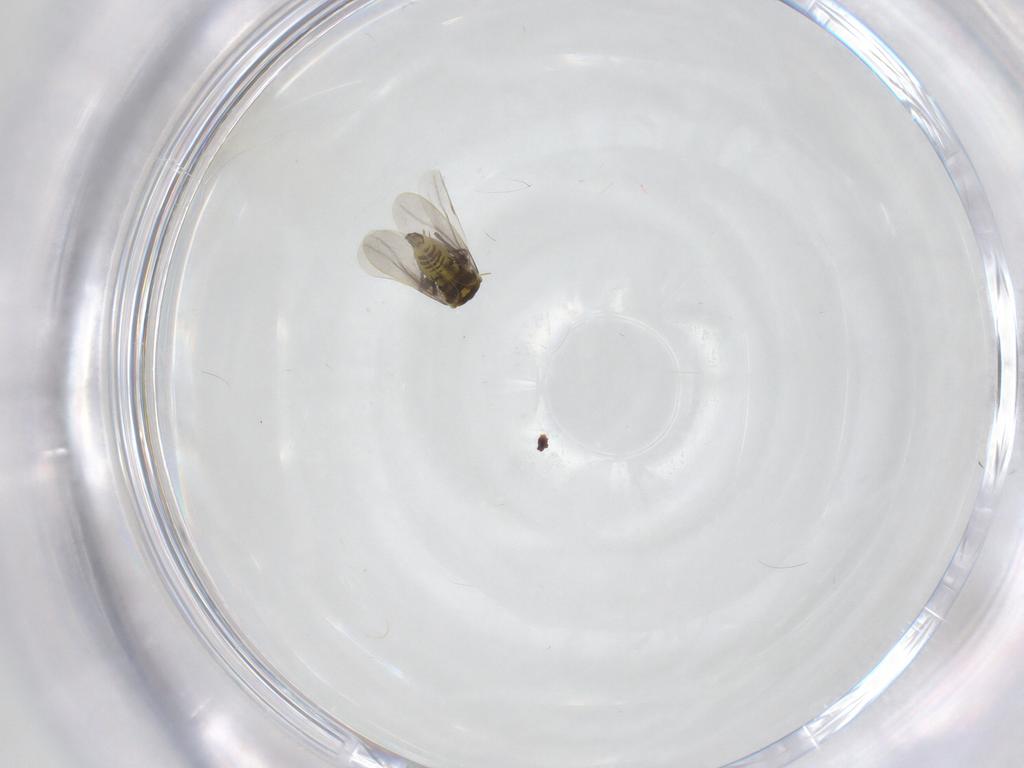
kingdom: Animalia
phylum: Arthropoda
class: Insecta
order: Hemiptera
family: Aleyrodidae
